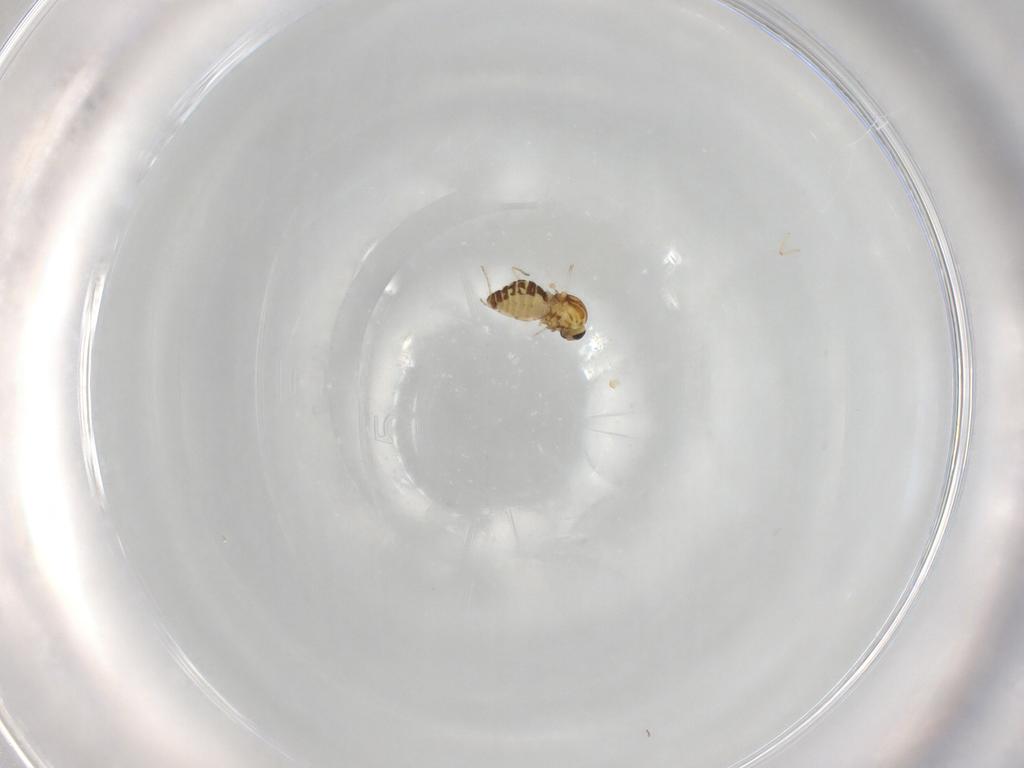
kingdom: Animalia
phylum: Arthropoda
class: Insecta
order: Diptera
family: Ceratopogonidae
